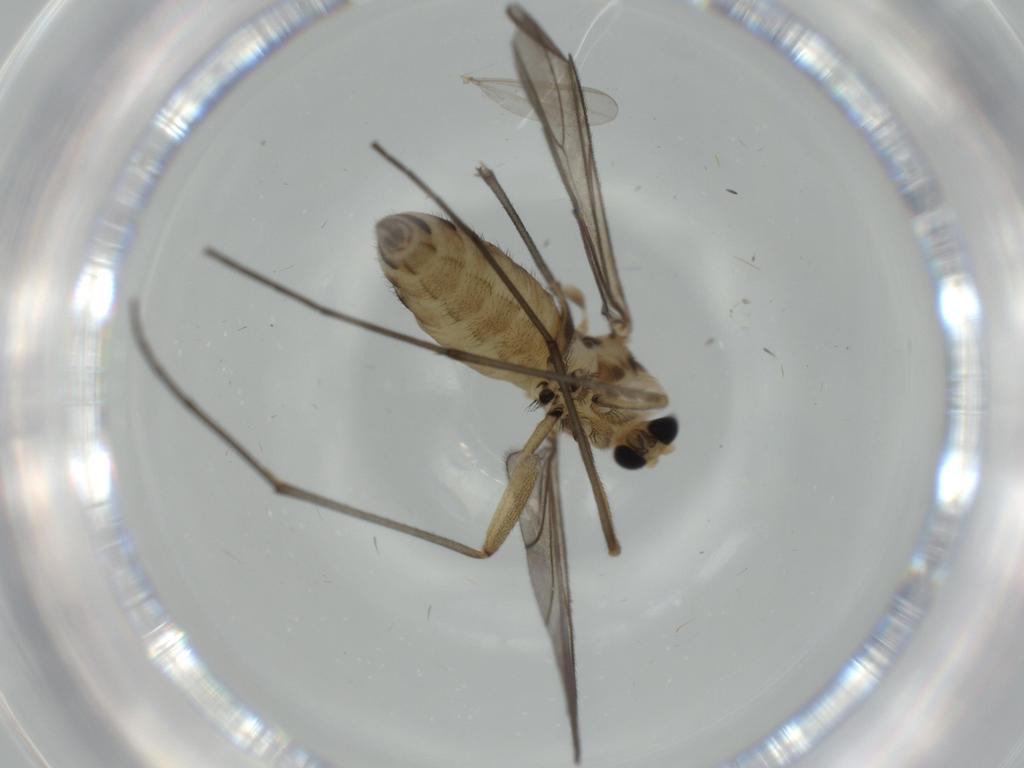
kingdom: Animalia
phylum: Arthropoda
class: Insecta
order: Diptera
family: Sciaridae
